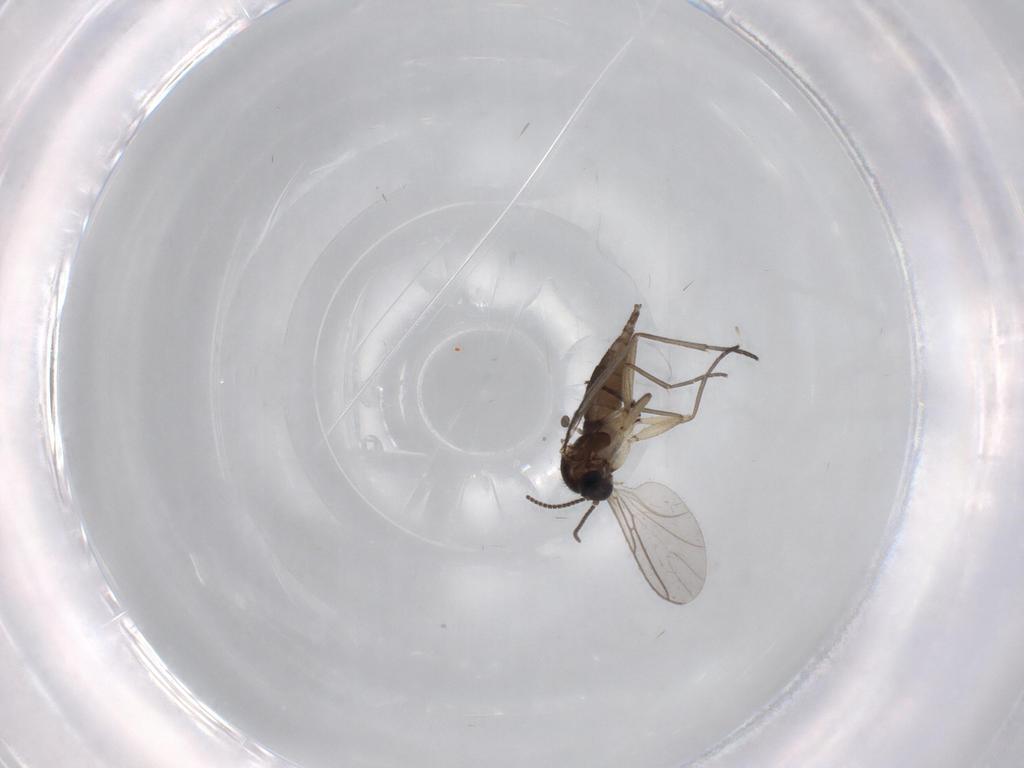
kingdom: Animalia
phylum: Arthropoda
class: Insecta
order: Diptera
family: Sciaridae
